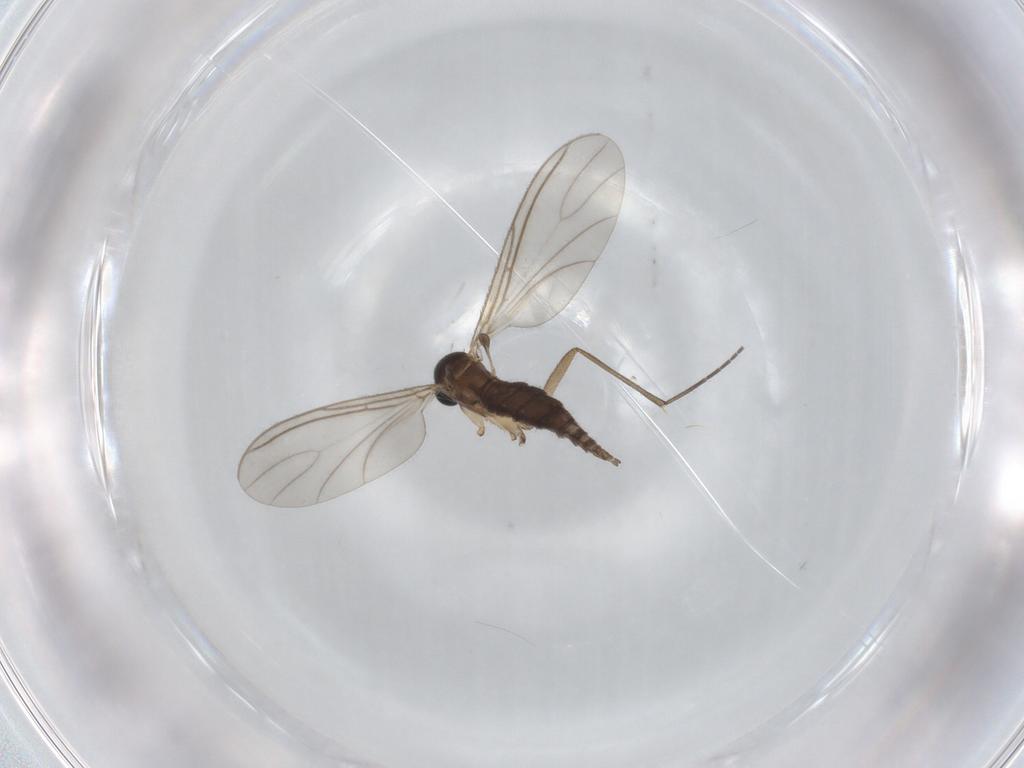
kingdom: Animalia
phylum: Arthropoda
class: Insecta
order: Diptera
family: Sciaridae
